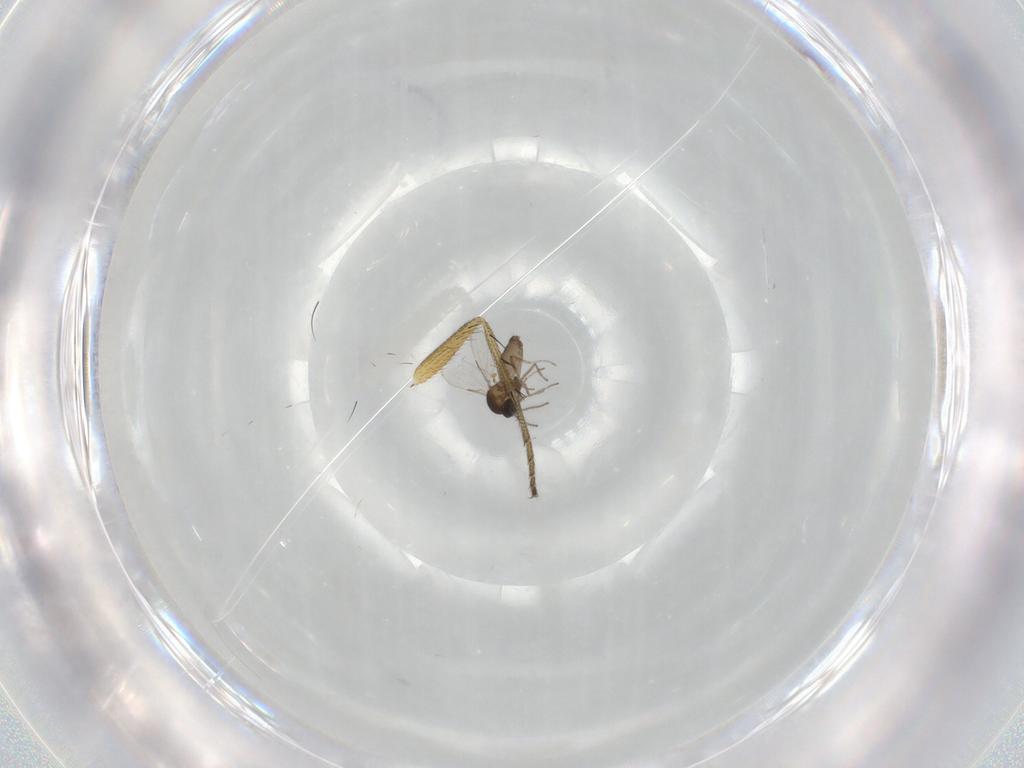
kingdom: Animalia
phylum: Arthropoda
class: Insecta
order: Diptera
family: Ceratopogonidae
